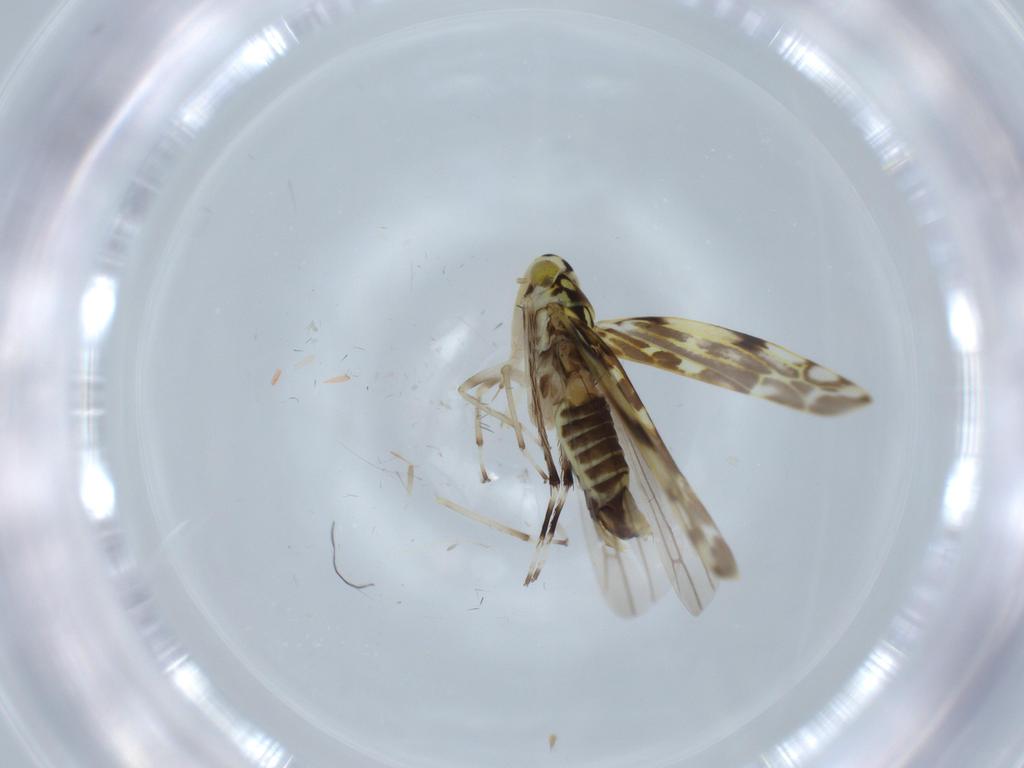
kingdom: Animalia
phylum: Arthropoda
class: Insecta
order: Hemiptera
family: Cicadellidae
